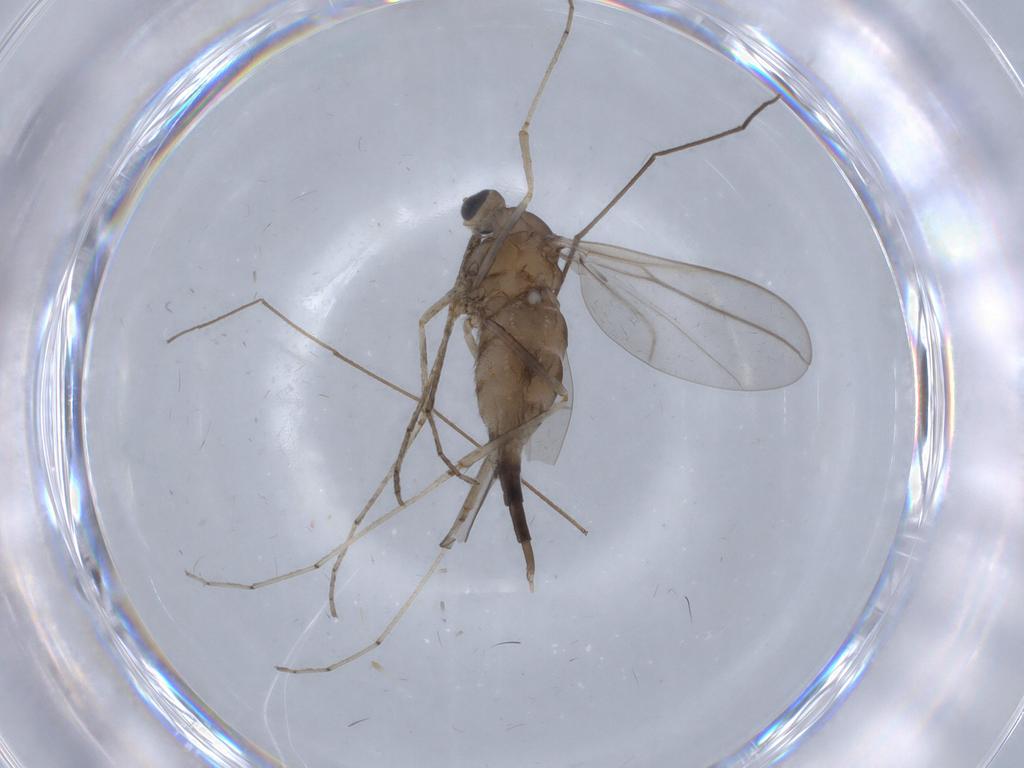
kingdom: Animalia
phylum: Arthropoda
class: Insecta
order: Diptera
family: Cecidomyiidae
